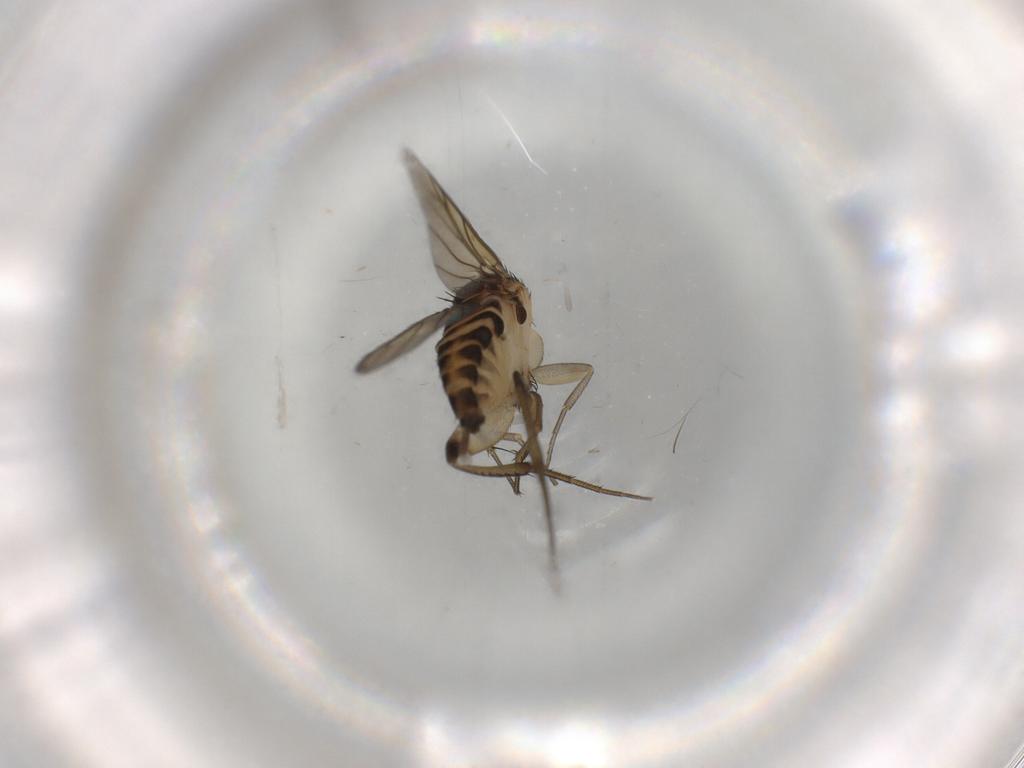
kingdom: Animalia
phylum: Arthropoda
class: Insecta
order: Diptera
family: Phoridae
